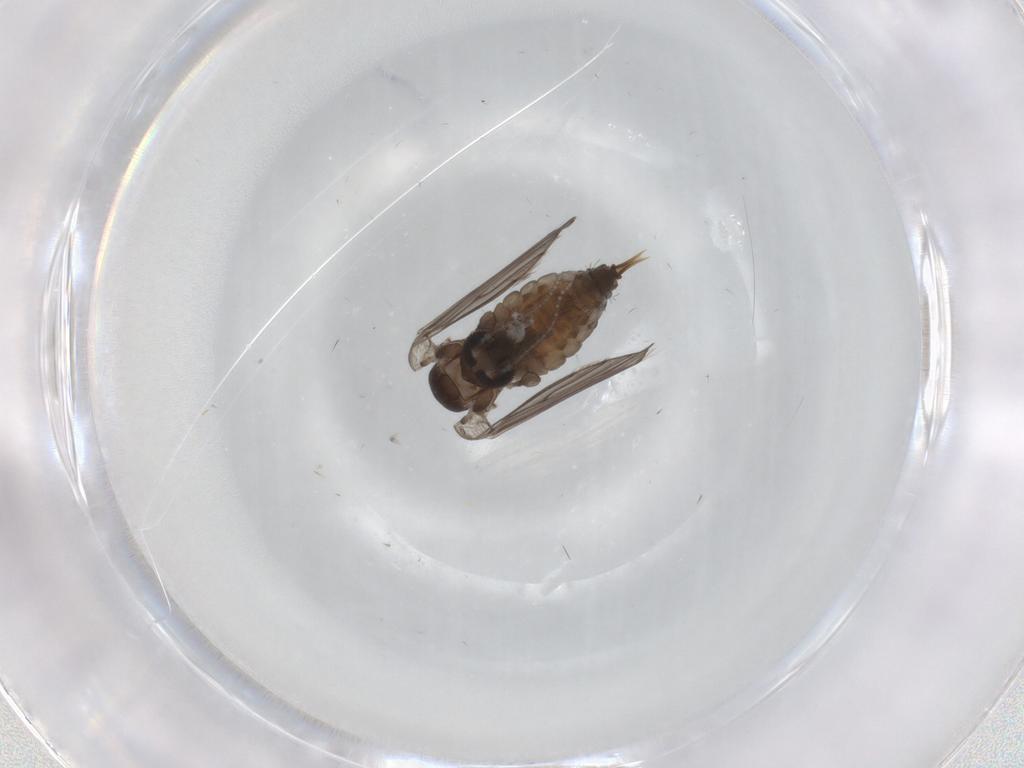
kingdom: Animalia
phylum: Arthropoda
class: Insecta
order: Diptera
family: Psychodidae
